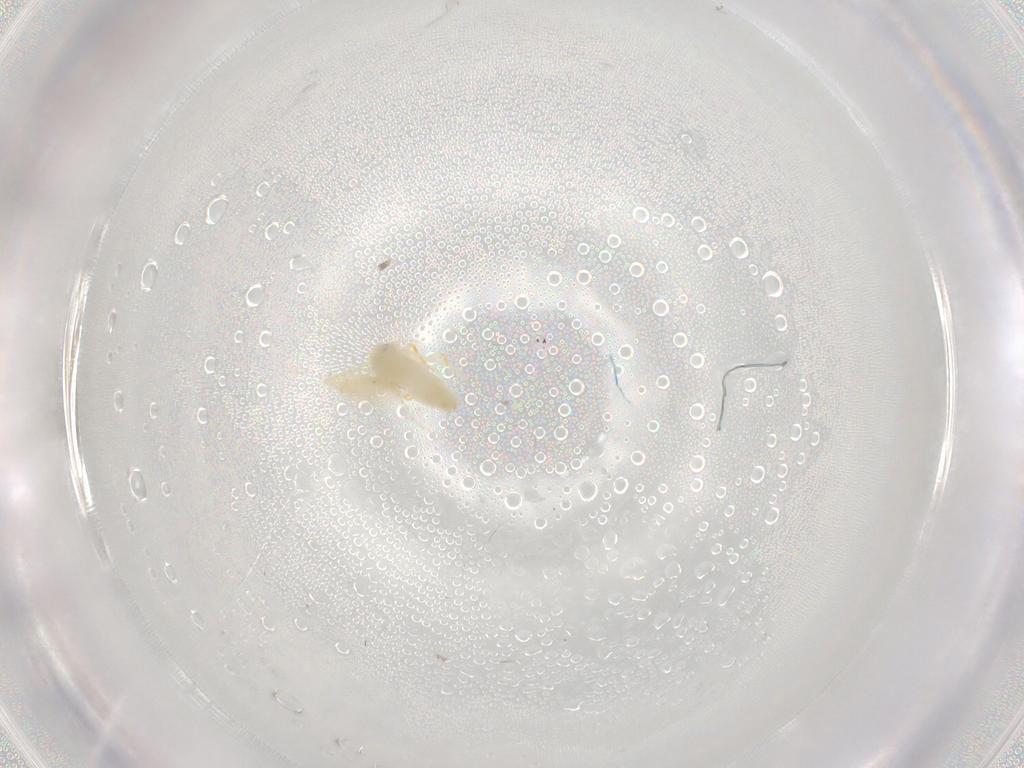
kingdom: Animalia
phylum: Arthropoda
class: Insecta
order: Hemiptera
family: Aleyrodidae
